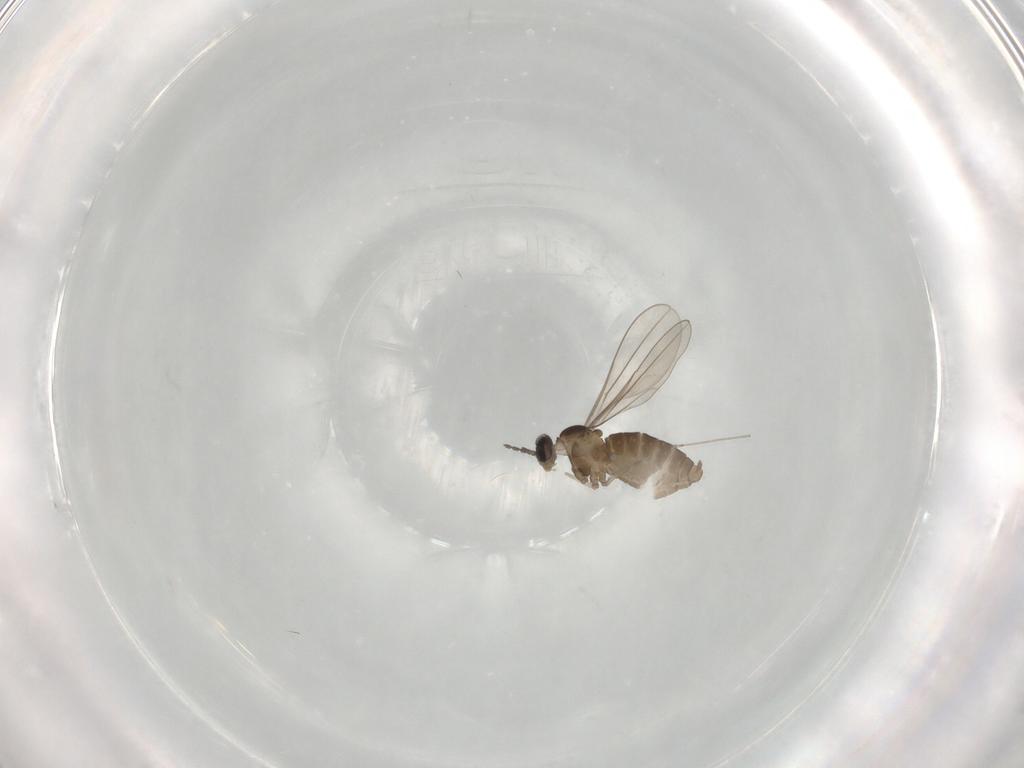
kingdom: Animalia
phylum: Arthropoda
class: Insecta
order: Diptera
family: Cecidomyiidae
